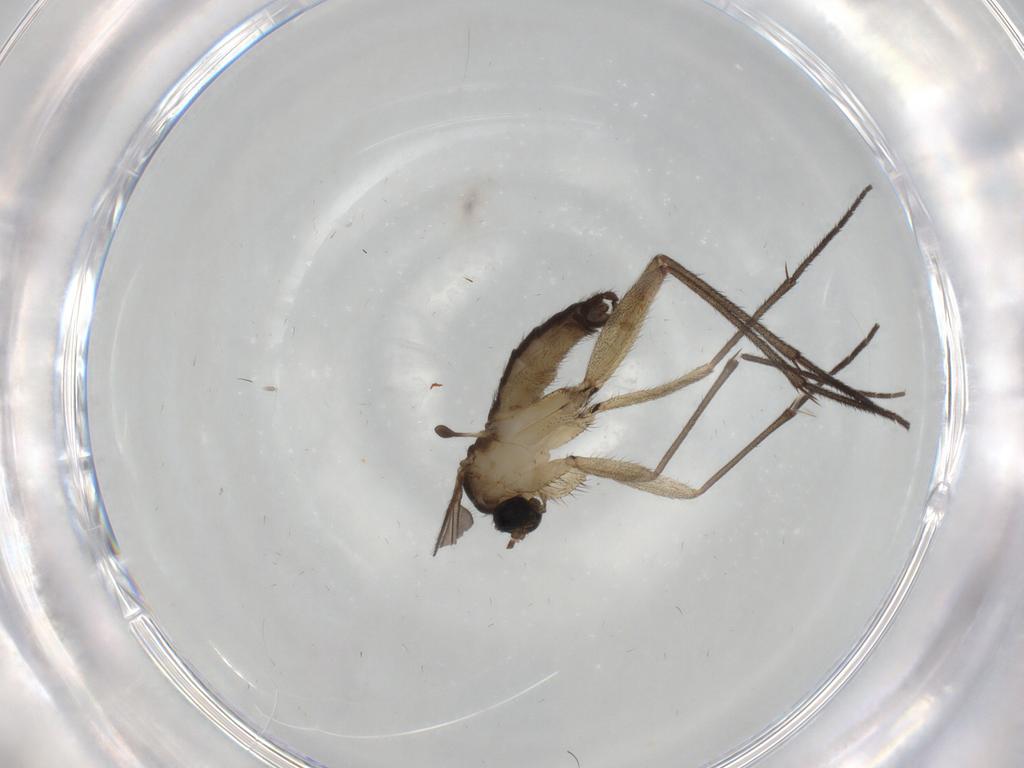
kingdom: Animalia
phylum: Arthropoda
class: Insecta
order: Diptera
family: Sciaridae
